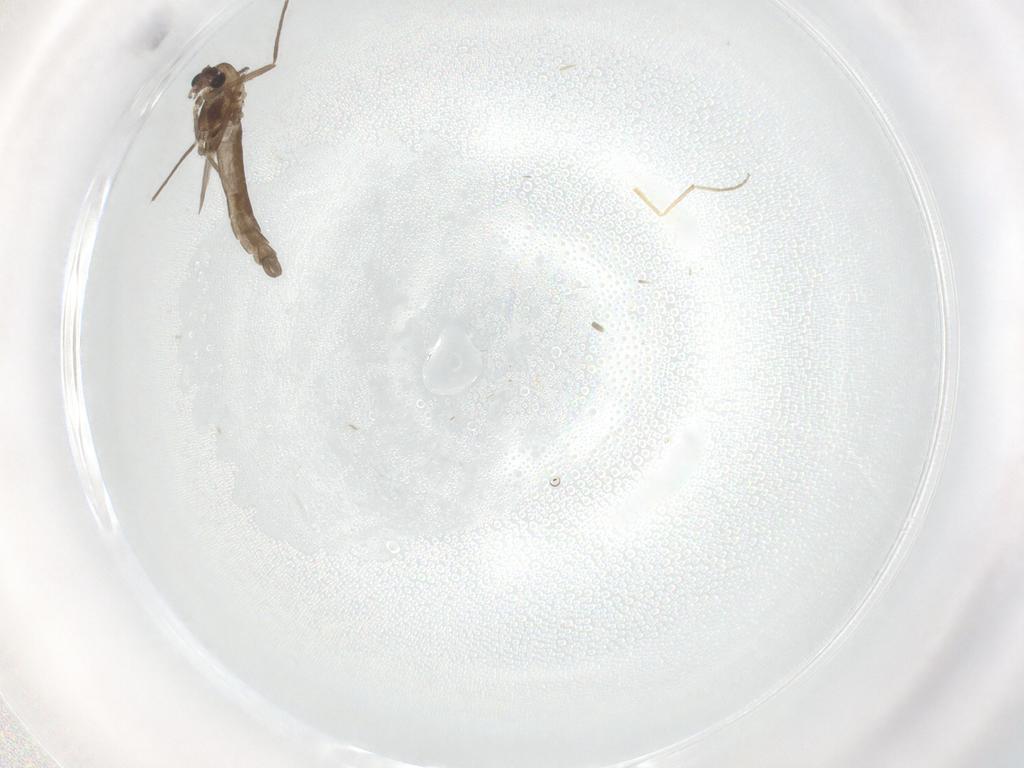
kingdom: Animalia
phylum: Arthropoda
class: Insecta
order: Diptera
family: Chironomidae
